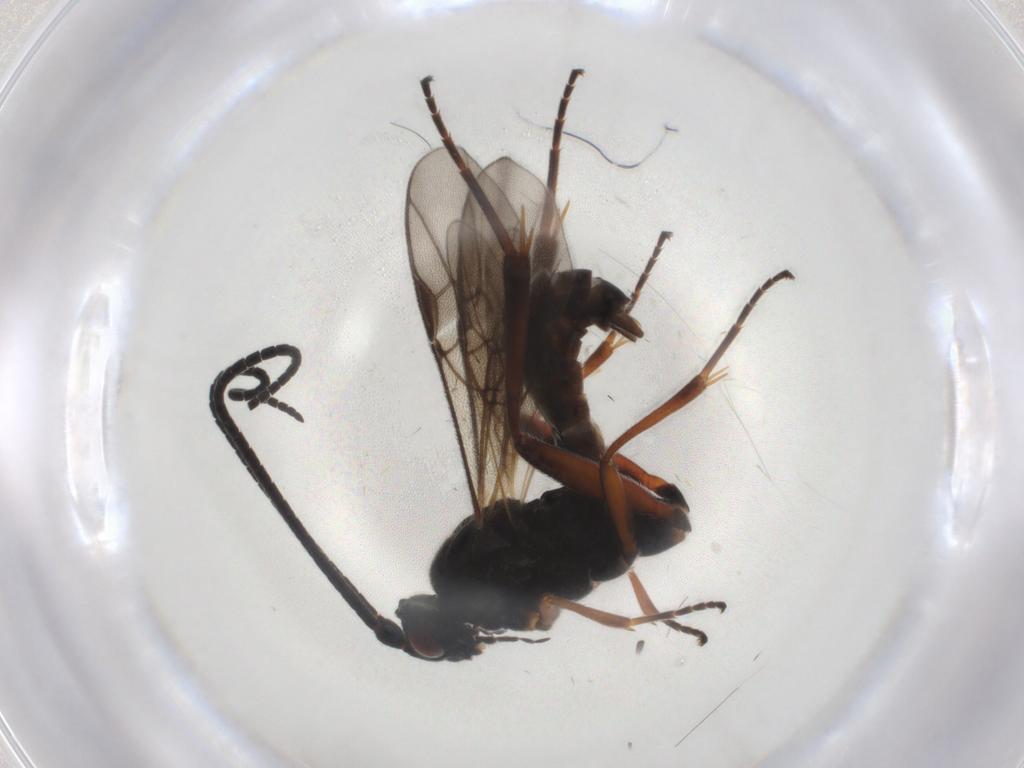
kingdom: Animalia
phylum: Arthropoda
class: Insecta
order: Hymenoptera
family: Braconidae
